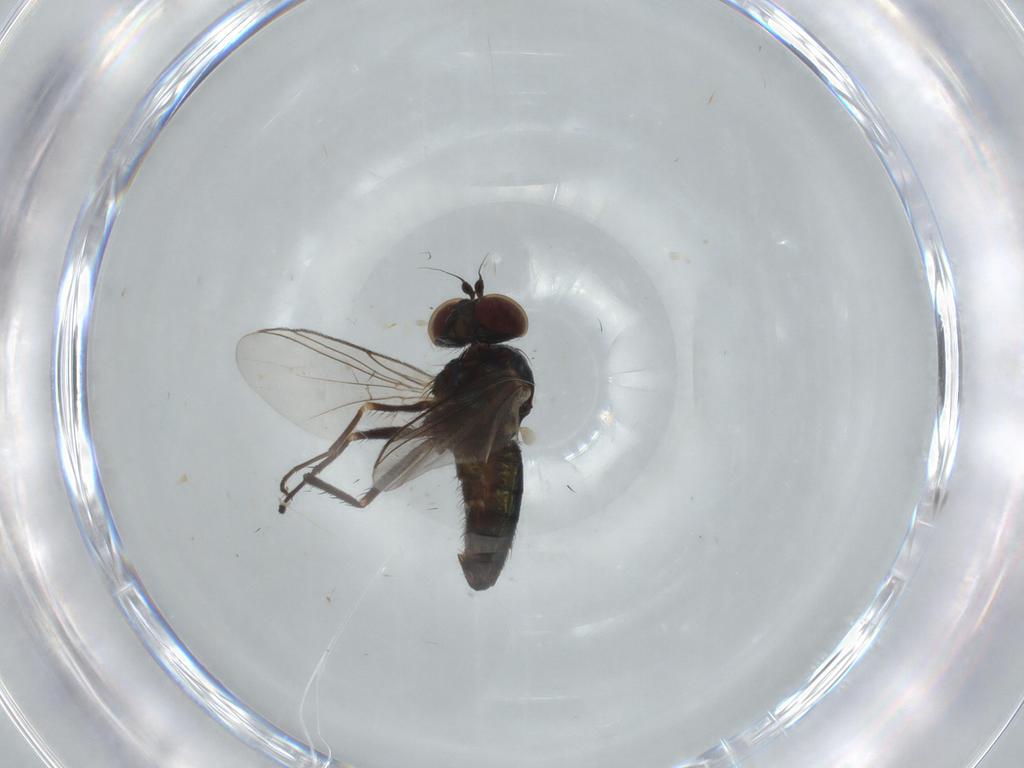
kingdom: Animalia
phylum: Arthropoda
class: Insecta
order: Diptera
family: Dolichopodidae
